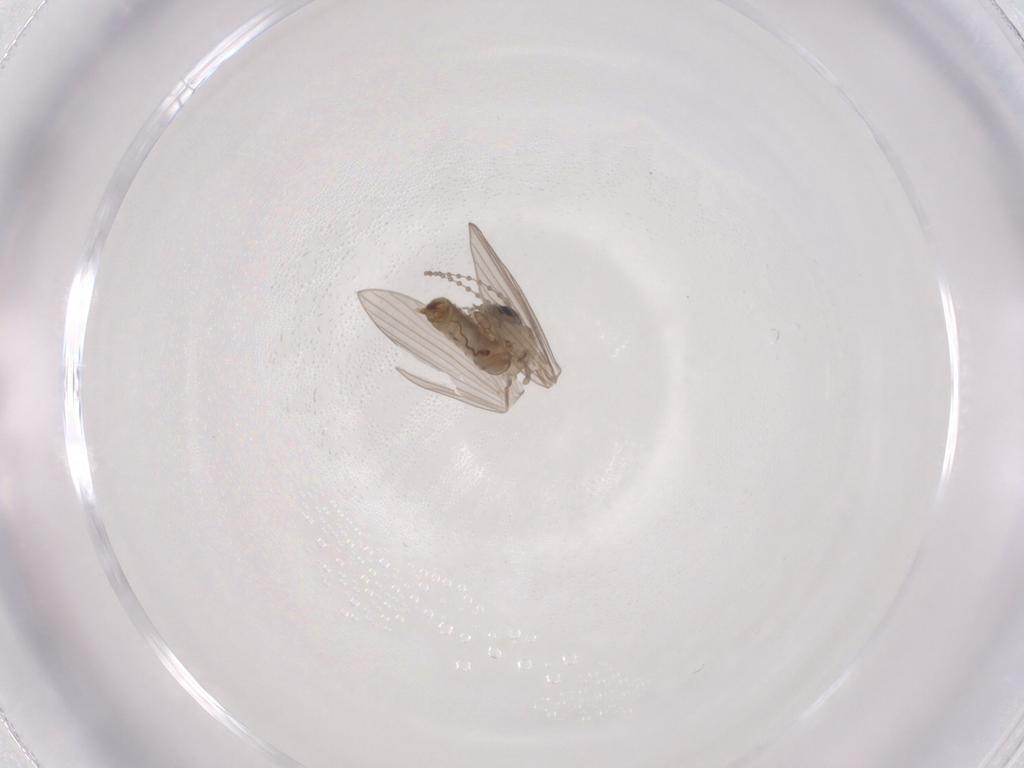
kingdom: Animalia
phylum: Arthropoda
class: Insecta
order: Diptera
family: Psychodidae
